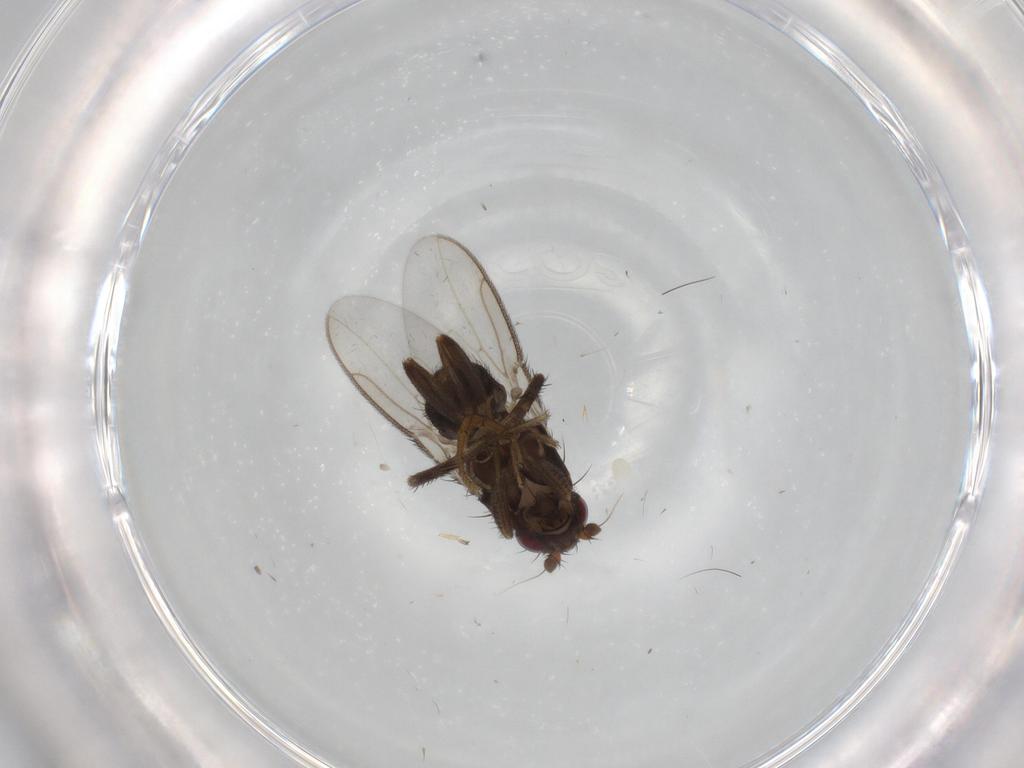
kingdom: Animalia
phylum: Arthropoda
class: Insecta
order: Diptera
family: Sphaeroceridae
